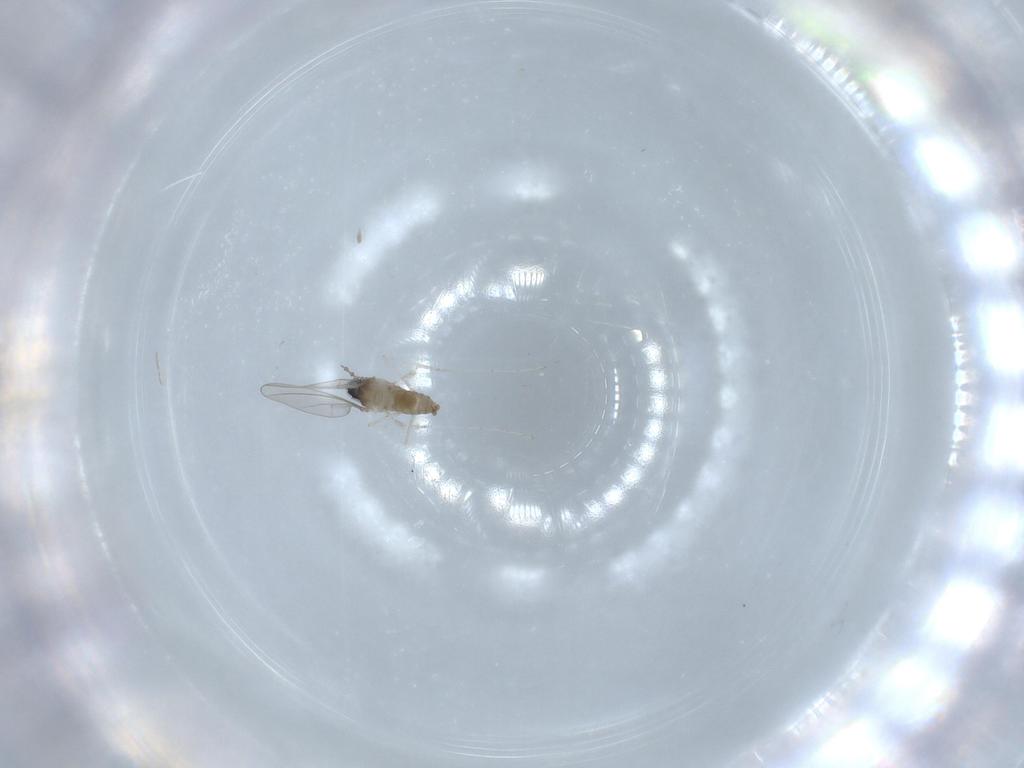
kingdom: Animalia
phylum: Arthropoda
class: Insecta
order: Diptera
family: Cecidomyiidae
